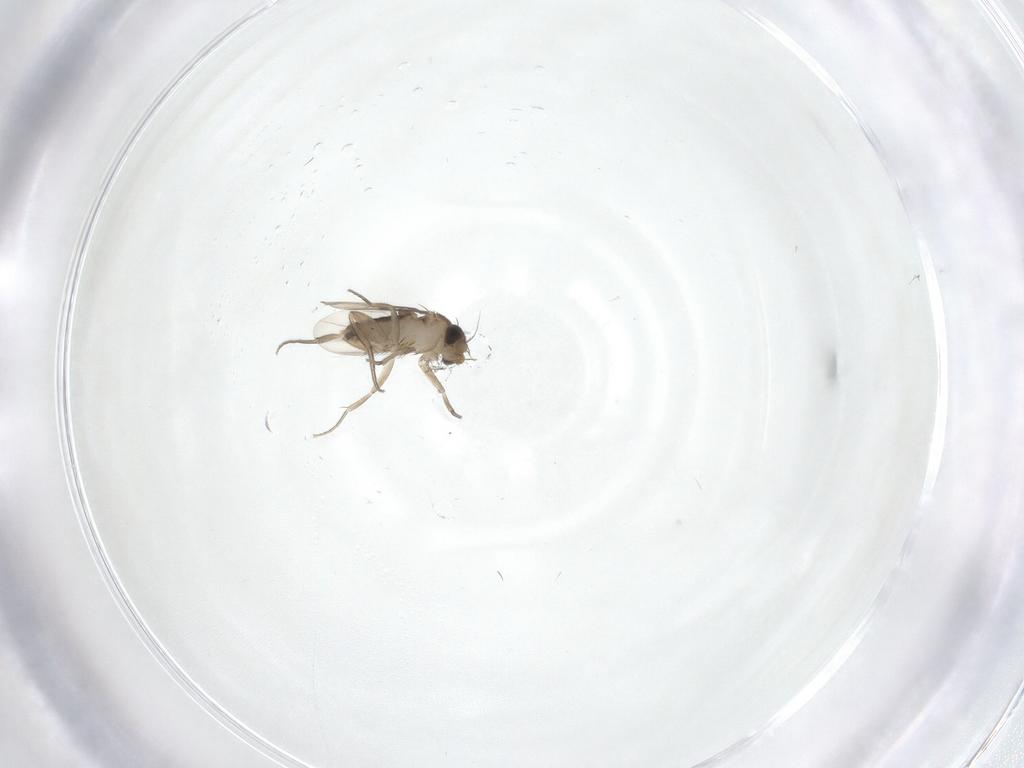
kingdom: Animalia
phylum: Arthropoda
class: Insecta
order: Diptera
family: Phoridae
